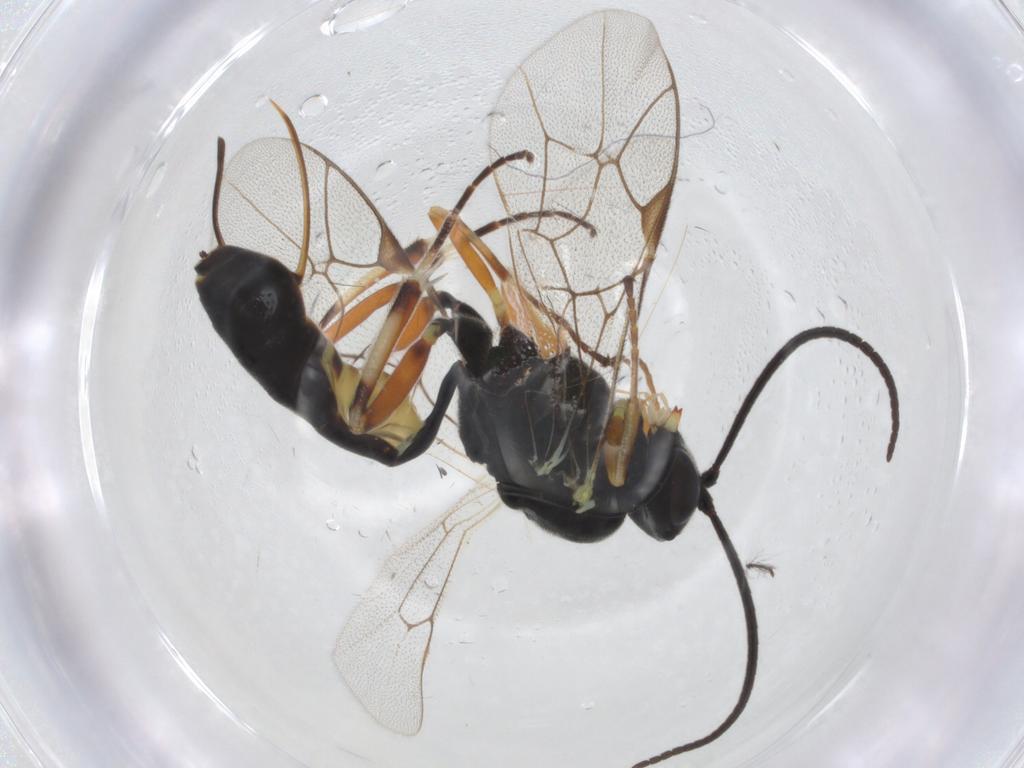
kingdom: Animalia
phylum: Arthropoda
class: Insecta
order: Hymenoptera
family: Ichneumonidae
